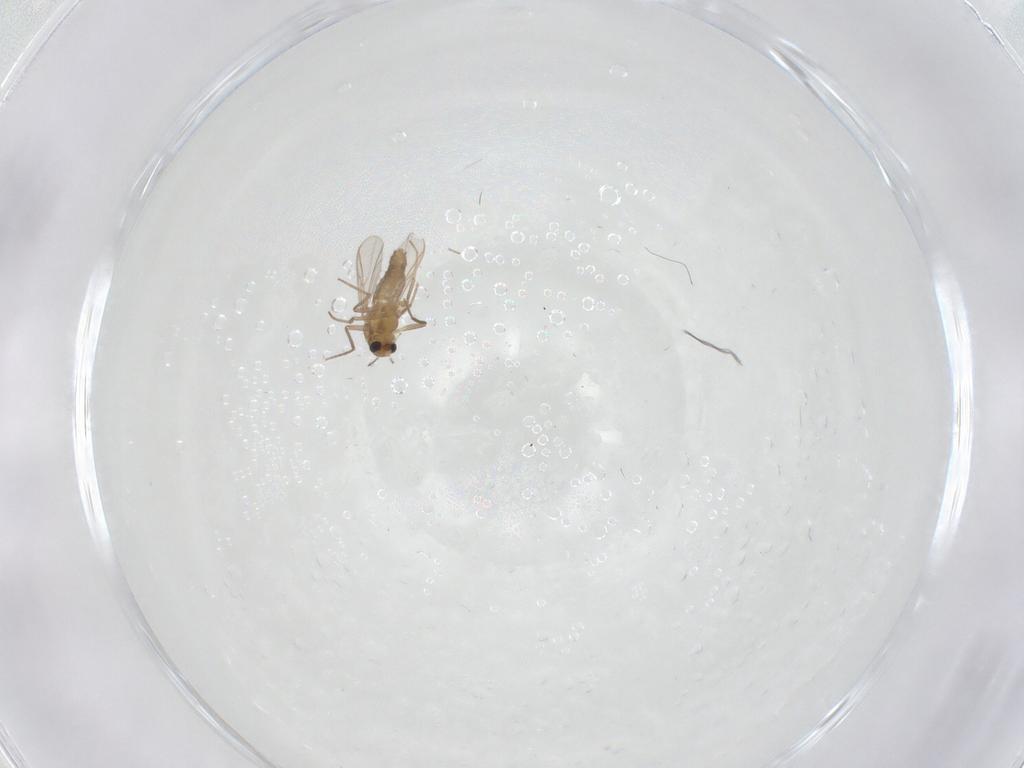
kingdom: Animalia
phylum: Arthropoda
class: Insecta
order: Diptera
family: Chironomidae
